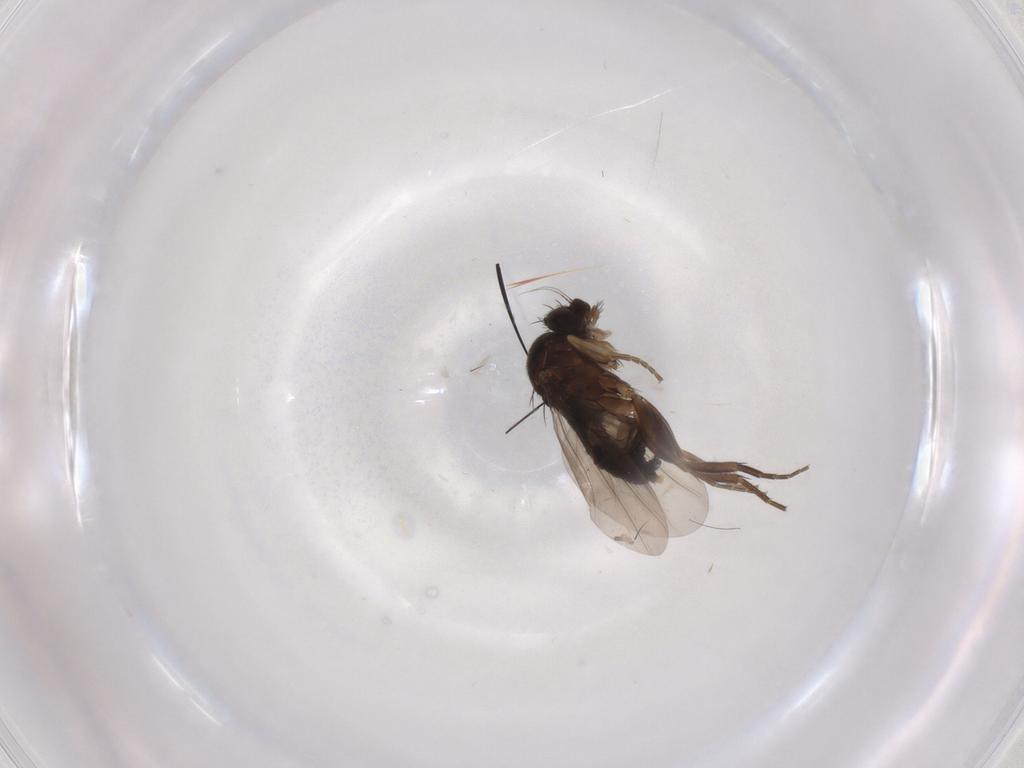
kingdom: Animalia
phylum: Arthropoda
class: Insecta
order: Diptera
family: Phoridae
